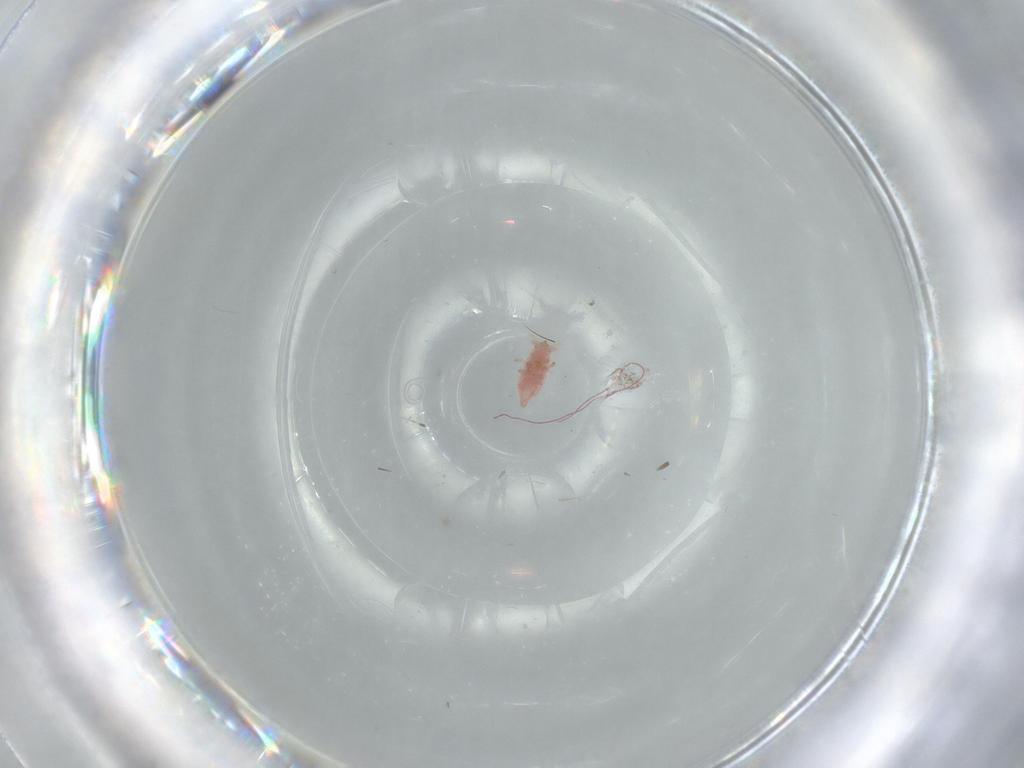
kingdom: Animalia
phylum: Arthropoda
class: Insecta
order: Neuroptera
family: Coniopterygidae
